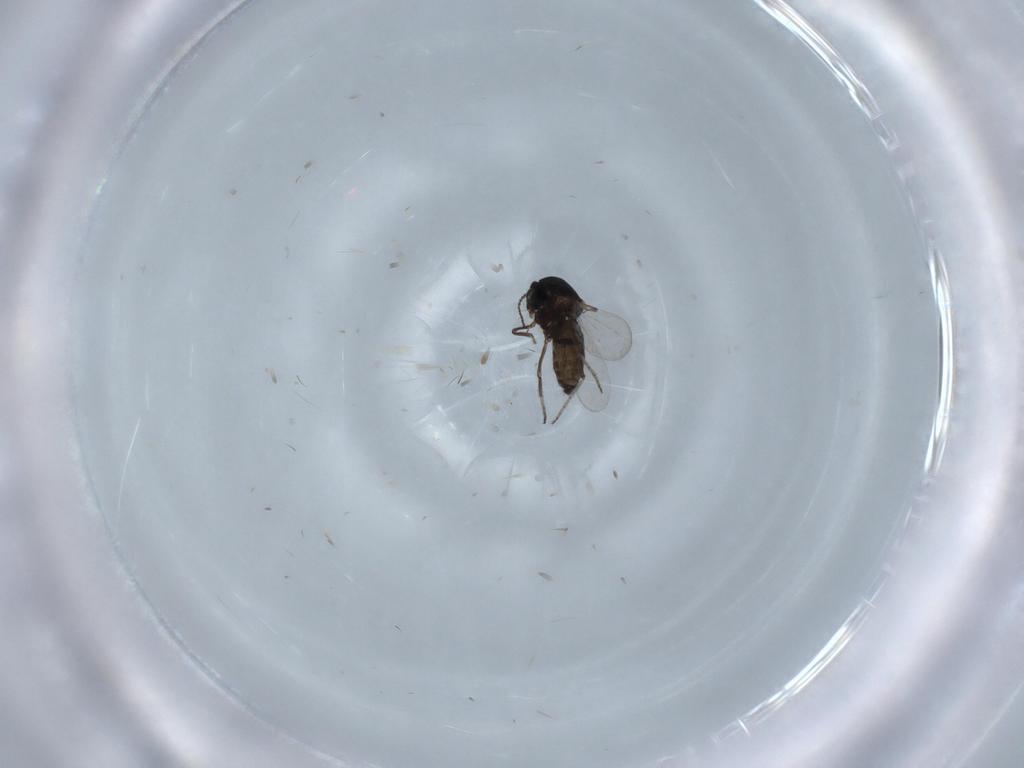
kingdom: Animalia
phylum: Arthropoda
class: Insecta
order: Diptera
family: Ceratopogonidae
